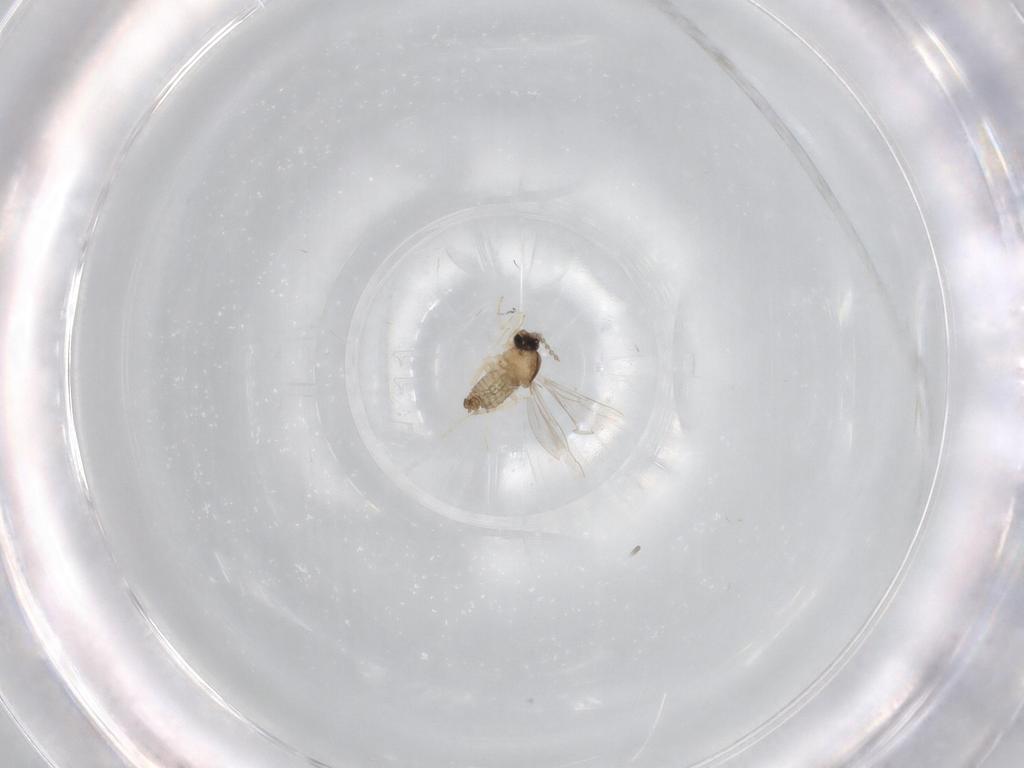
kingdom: Animalia
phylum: Arthropoda
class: Insecta
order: Diptera
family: Cecidomyiidae
